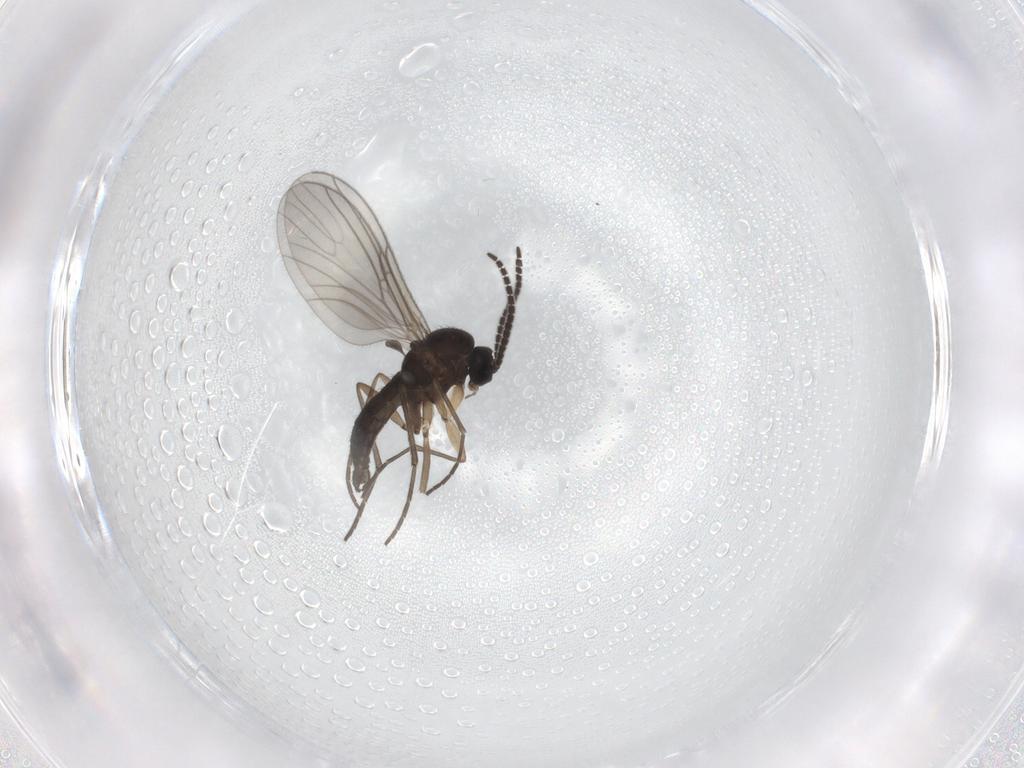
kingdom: Animalia
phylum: Arthropoda
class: Insecta
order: Diptera
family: Sciaridae
